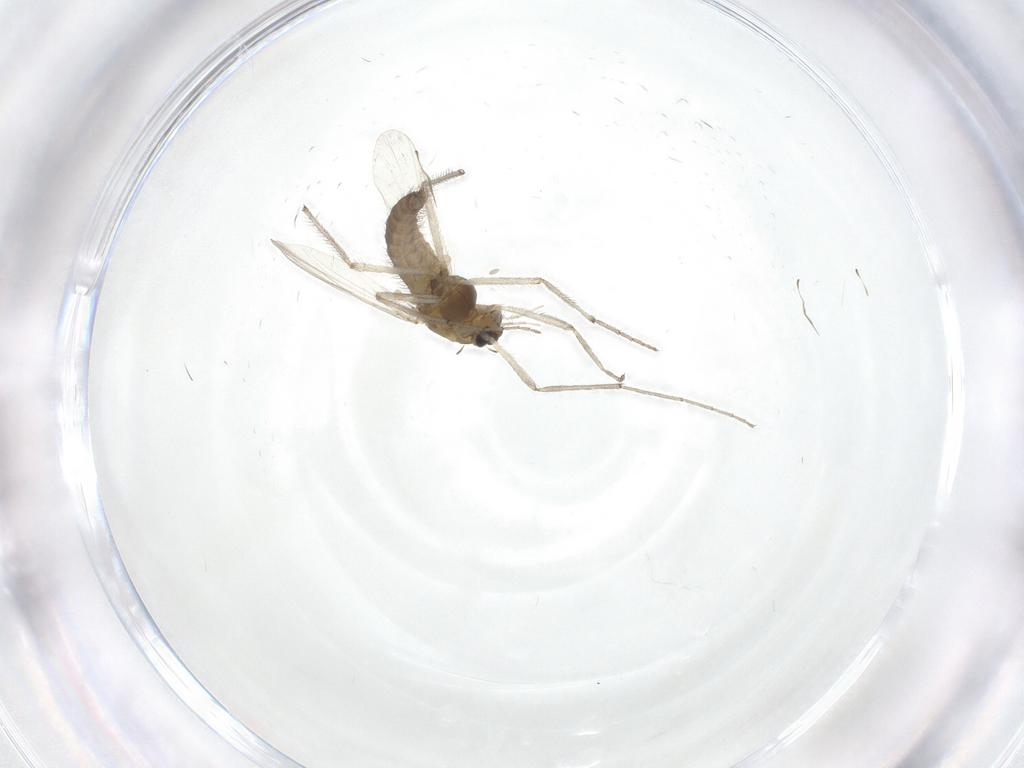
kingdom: Animalia
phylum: Arthropoda
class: Insecta
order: Diptera
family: Chironomidae
